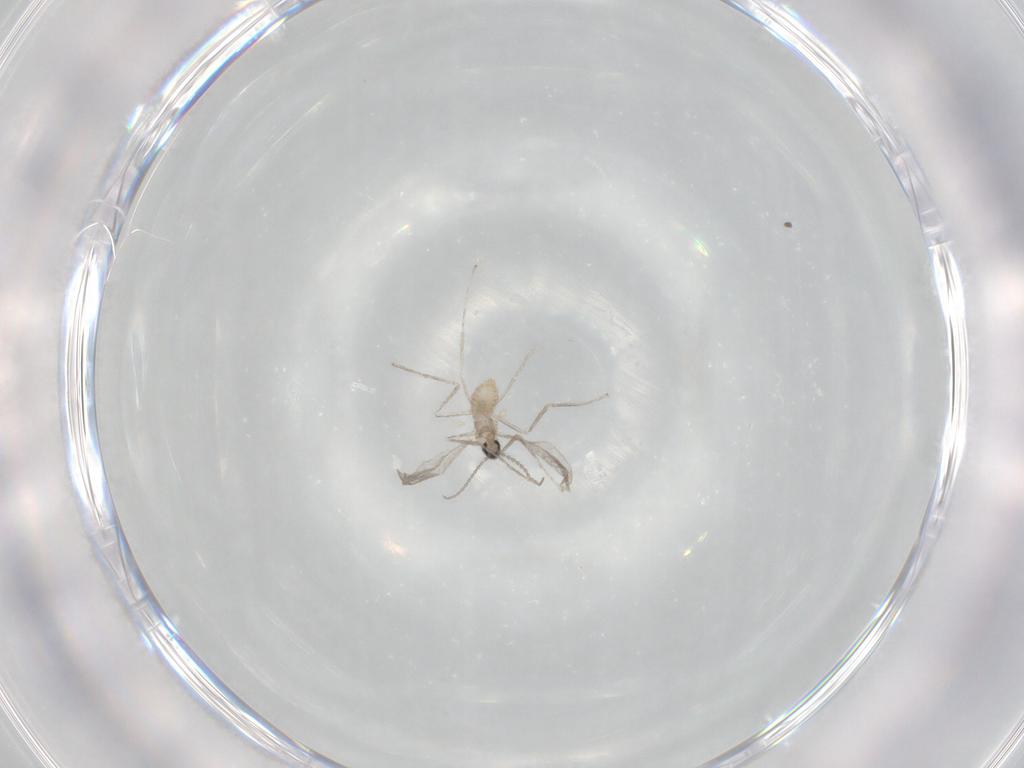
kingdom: Animalia
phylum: Arthropoda
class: Insecta
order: Diptera
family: Cecidomyiidae
